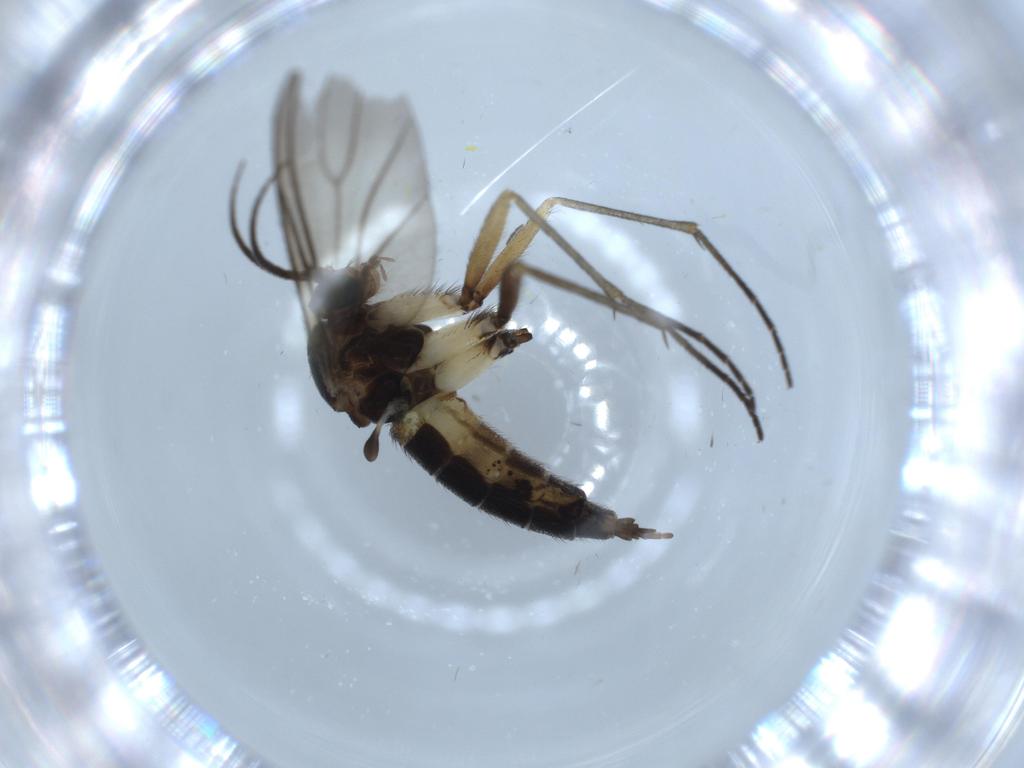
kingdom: Animalia
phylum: Arthropoda
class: Insecta
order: Diptera
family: Sciaridae
